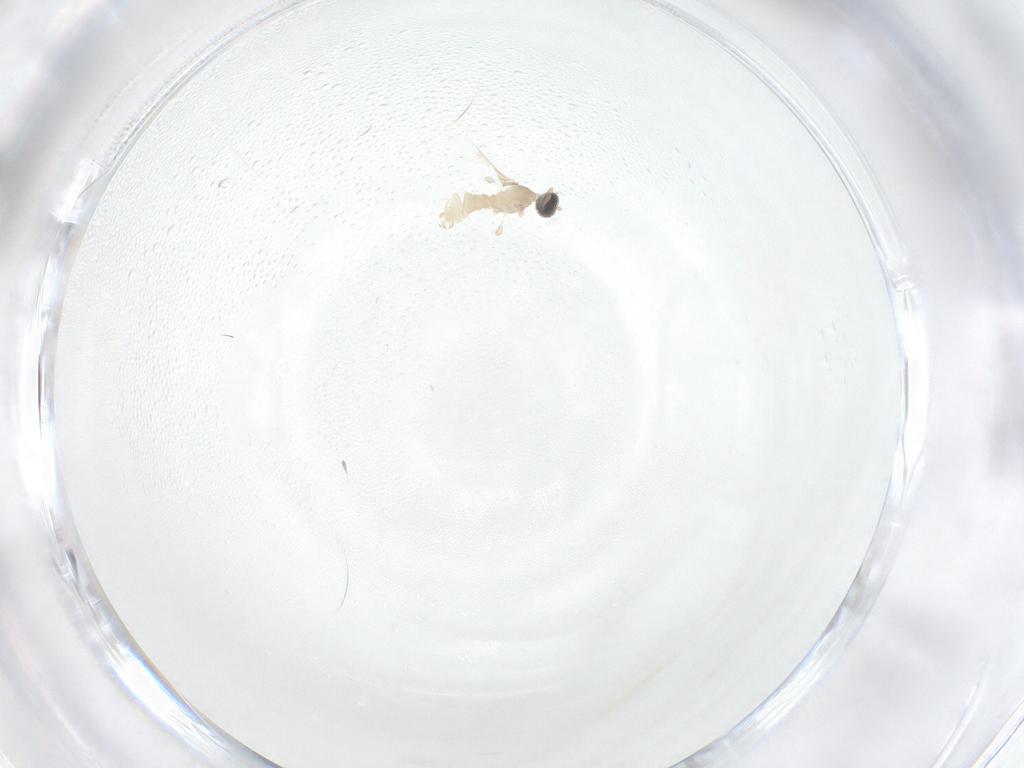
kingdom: Animalia
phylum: Arthropoda
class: Insecta
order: Diptera
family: Cecidomyiidae
